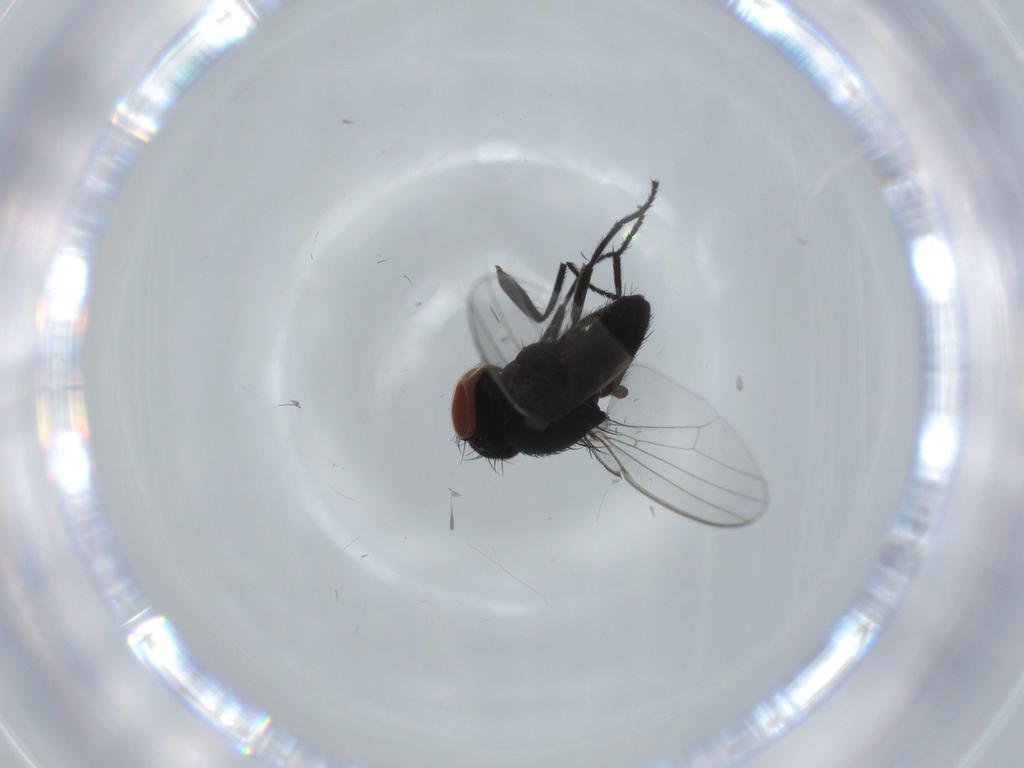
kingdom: Animalia
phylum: Arthropoda
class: Insecta
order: Diptera
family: Milichiidae
